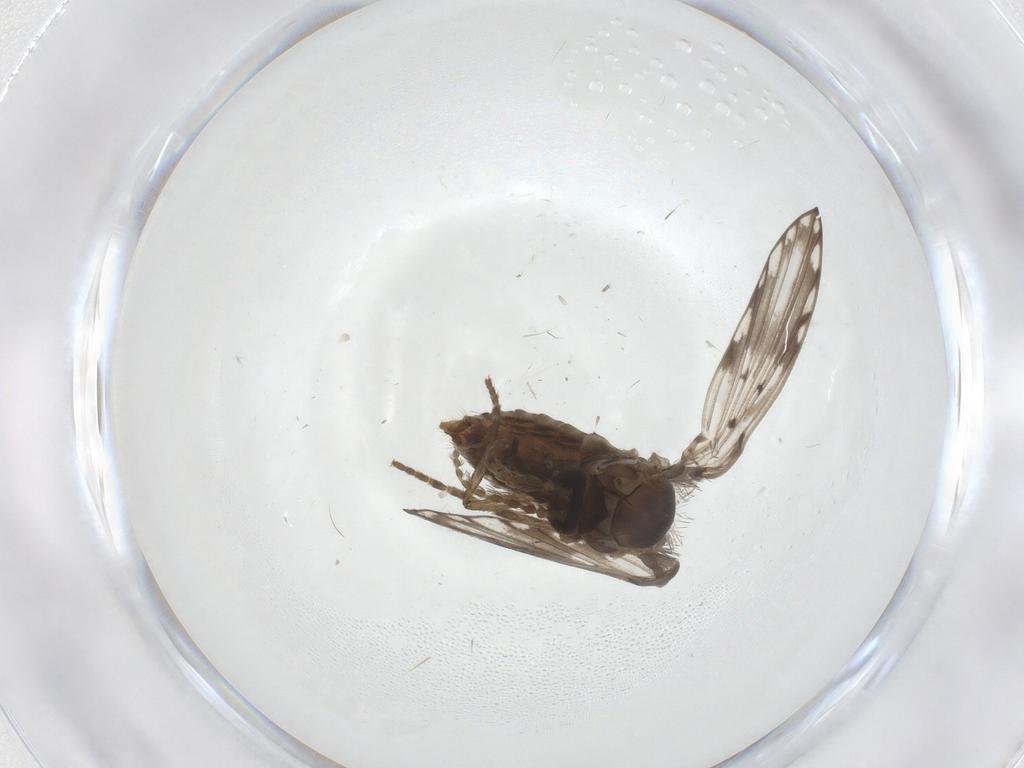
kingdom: Animalia
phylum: Arthropoda
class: Insecta
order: Diptera
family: Psychodidae
